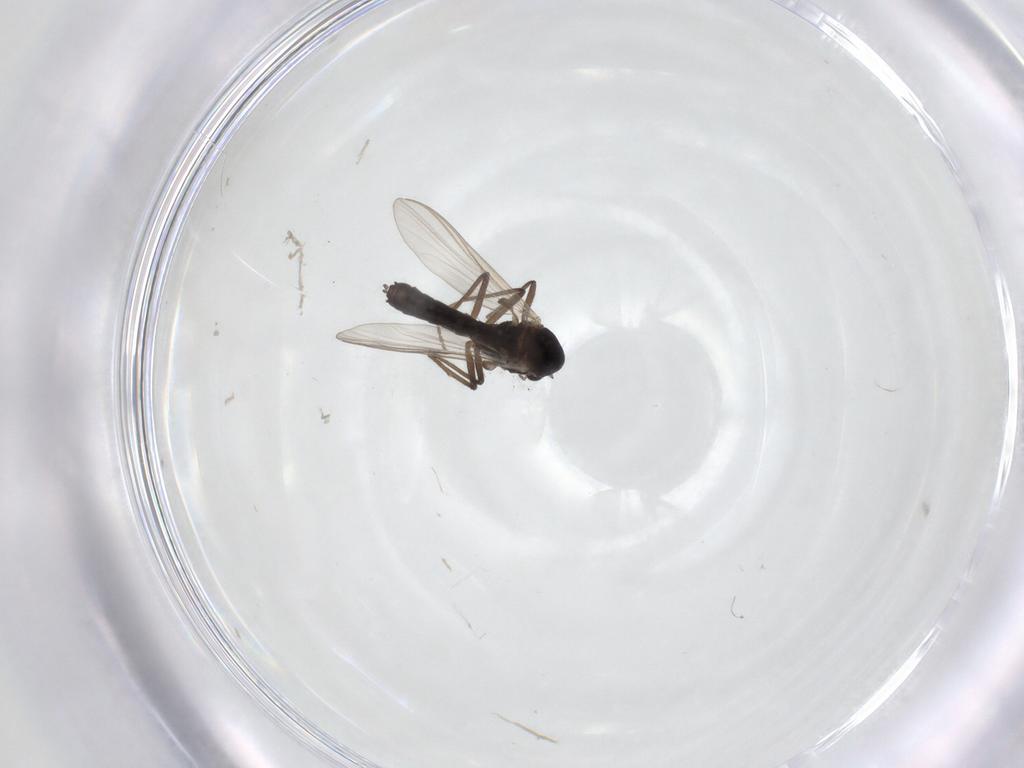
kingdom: Animalia
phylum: Arthropoda
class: Insecta
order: Diptera
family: Chironomidae
